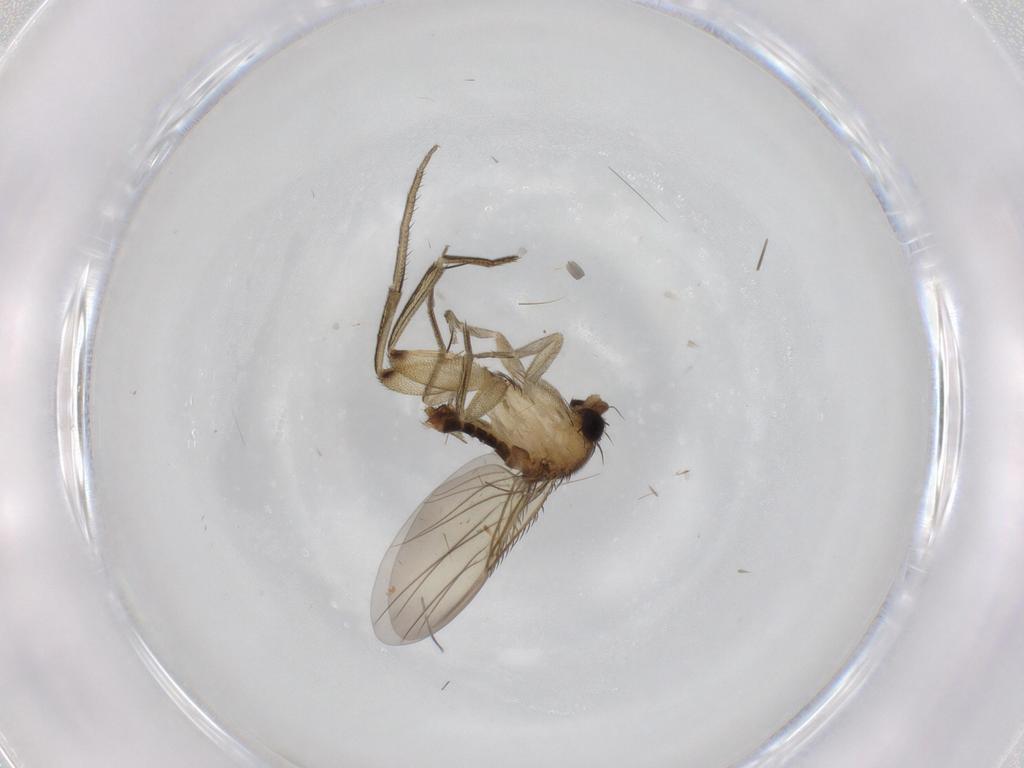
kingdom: Animalia
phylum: Arthropoda
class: Insecta
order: Diptera
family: Phoridae
